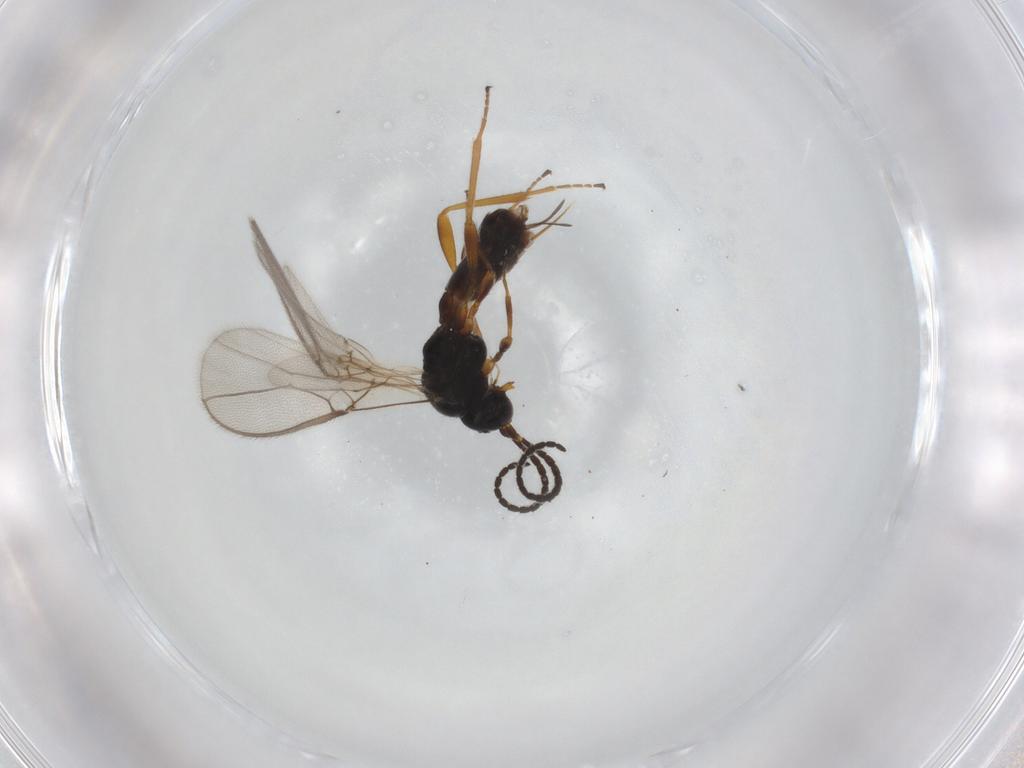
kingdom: Animalia
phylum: Arthropoda
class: Insecta
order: Hymenoptera
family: Braconidae
